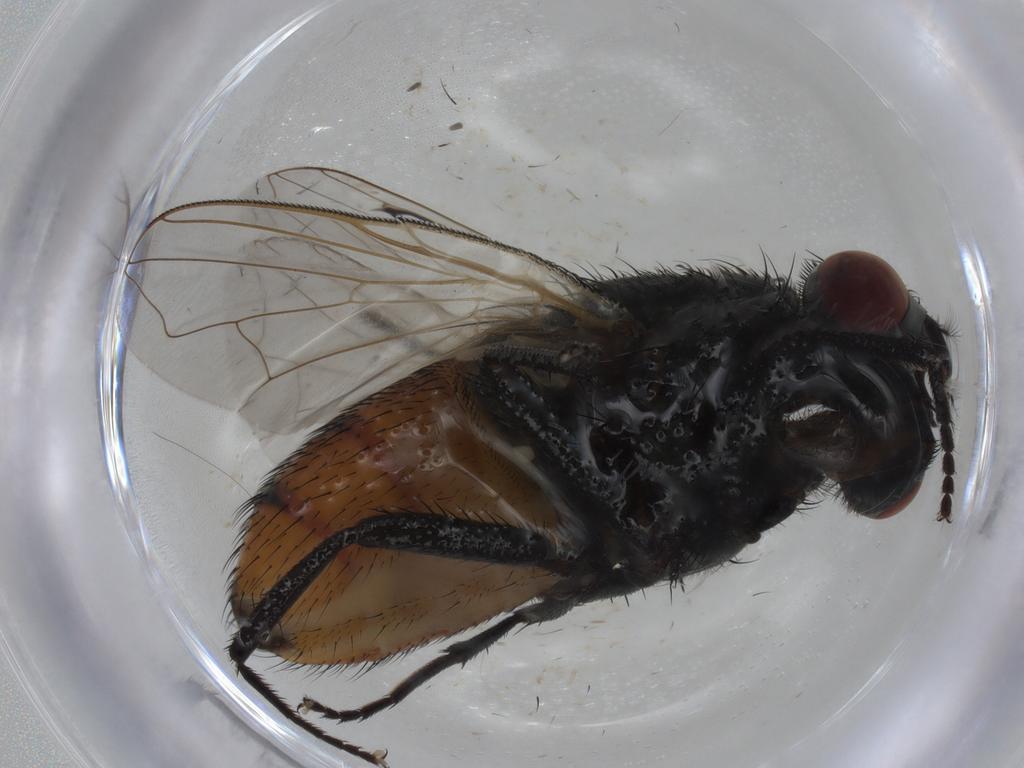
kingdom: Animalia
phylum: Arthropoda
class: Insecta
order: Diptera
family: Muscidae
